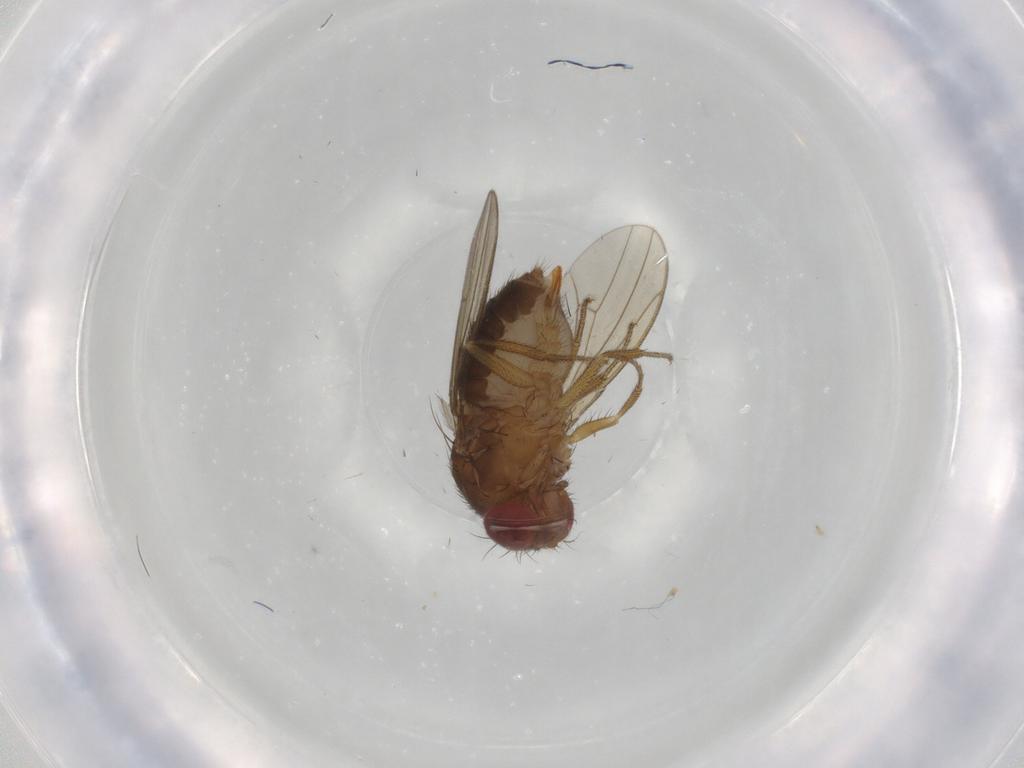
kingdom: Animalia
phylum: Arthropoda
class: Insecta
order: Diptera
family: Drosophilidae
